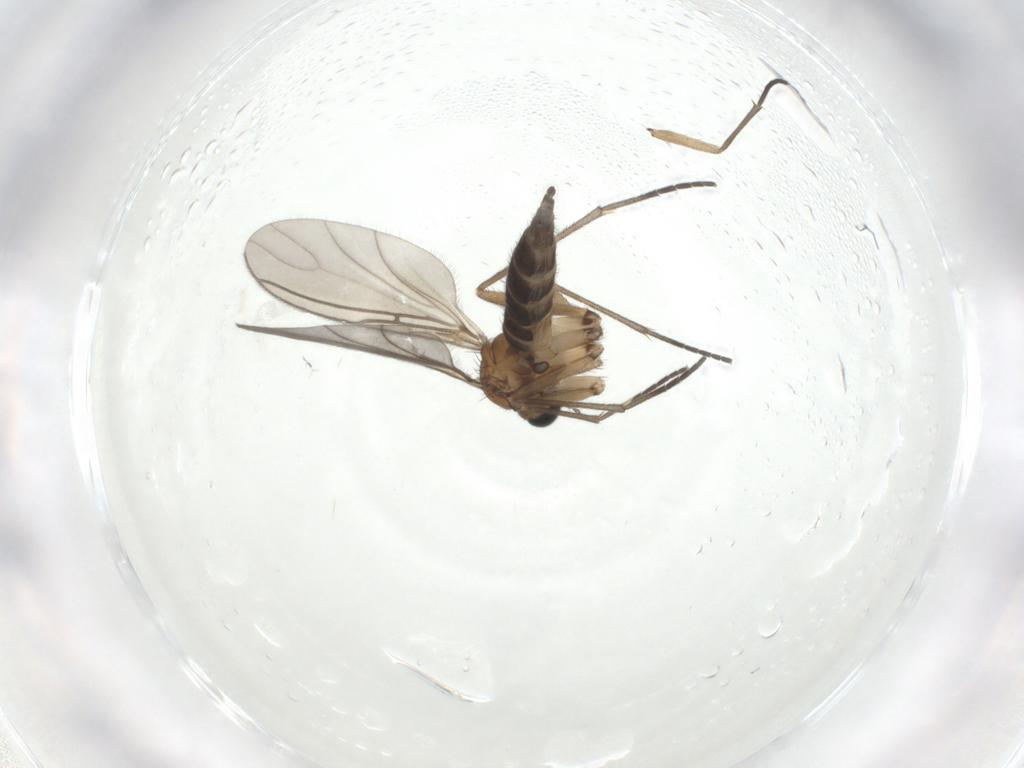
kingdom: Animalia
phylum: Arthropoda
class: Insecta
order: Diptera
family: Sciaridae
